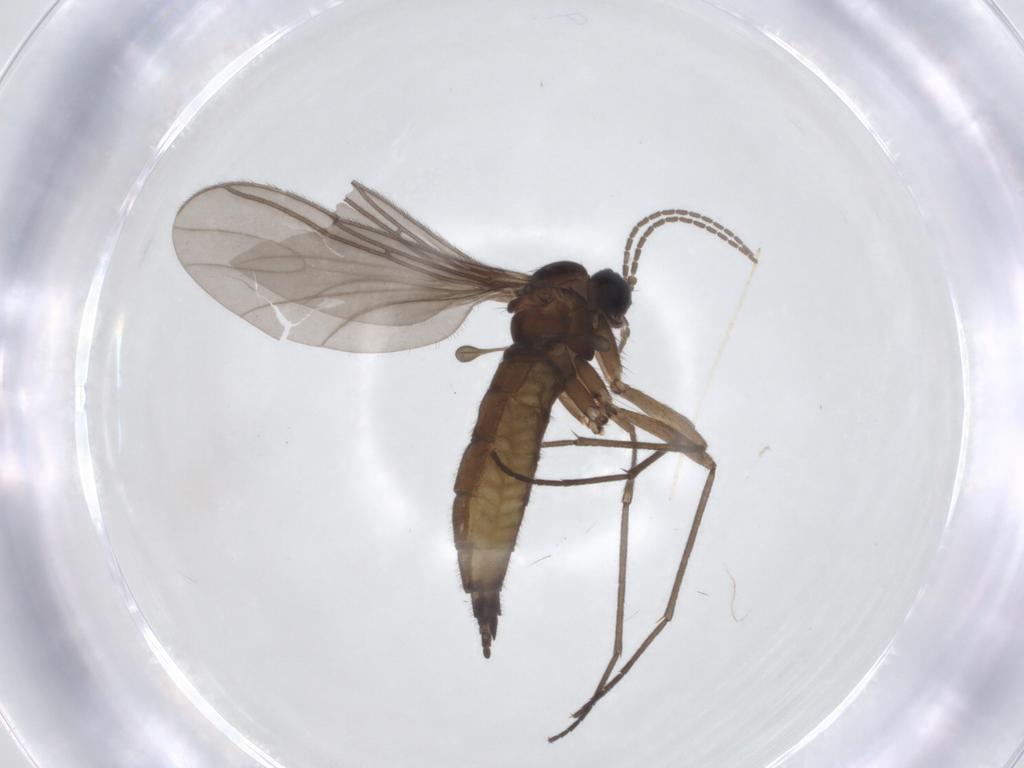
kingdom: Animalia
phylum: Arthropoda
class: Insecta
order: Diptera
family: Sciaridae
